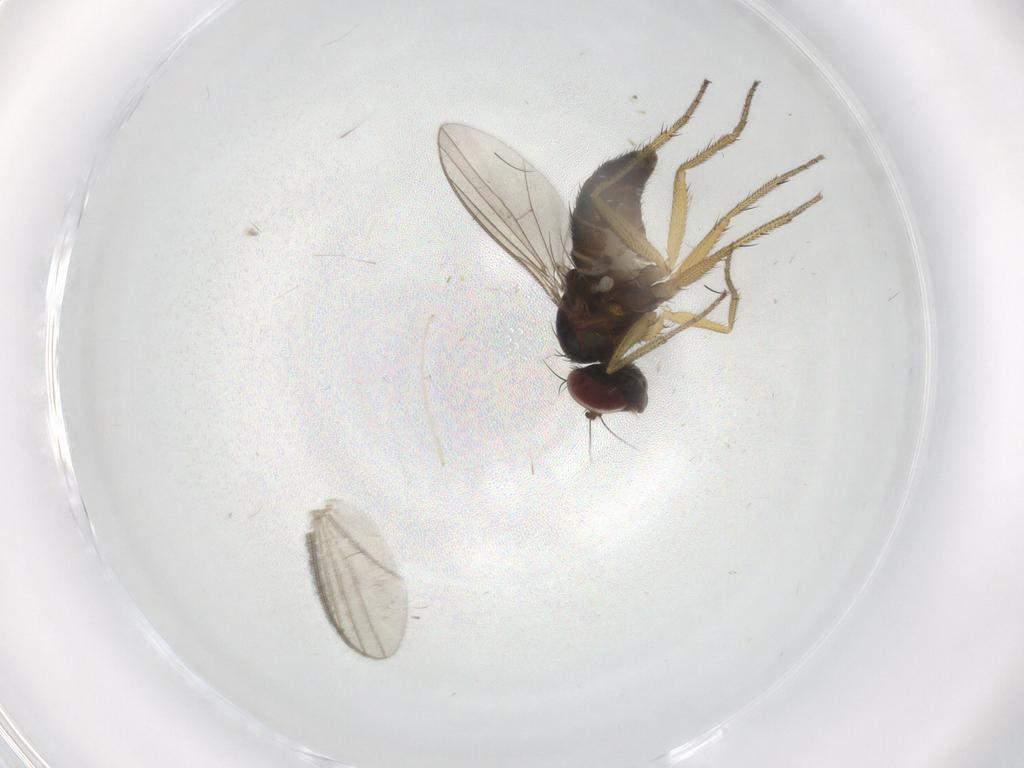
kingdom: Animalia
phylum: Arthropoda
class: Insecta
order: Diptera
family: Dolichopodidae
